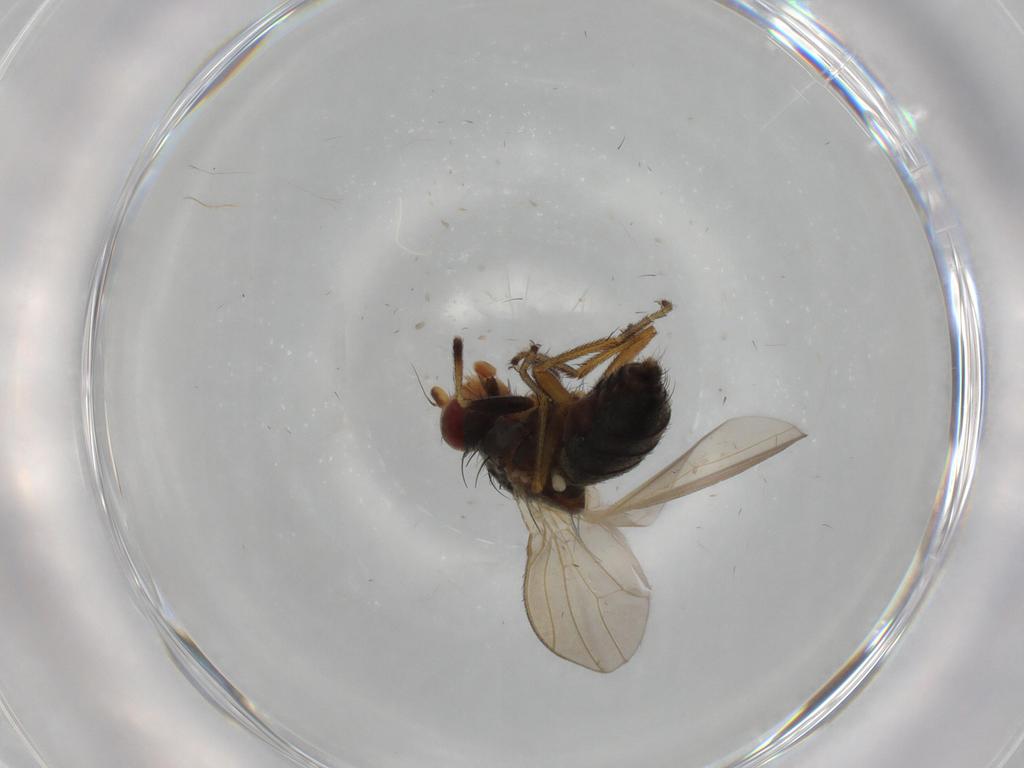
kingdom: Animalia
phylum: Arthropoda
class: Insecta
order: Diptera
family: Ulidiidae
